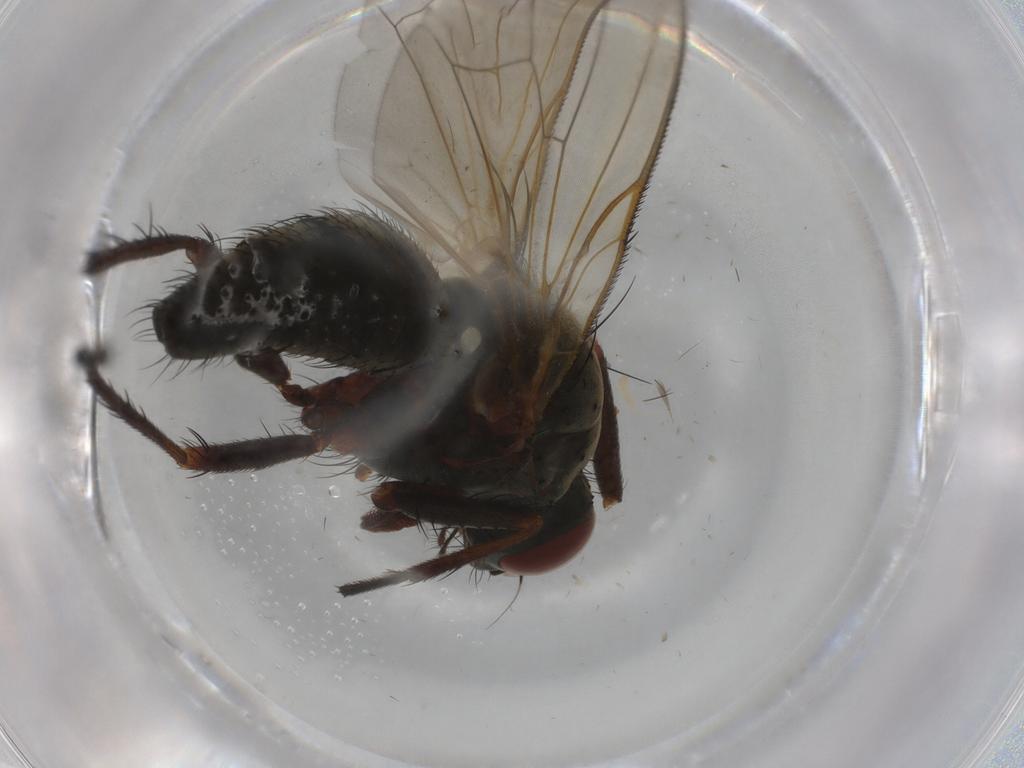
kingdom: Animalia
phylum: Arthropoda
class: Insecta
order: Diptera
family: Anthomyiidae
